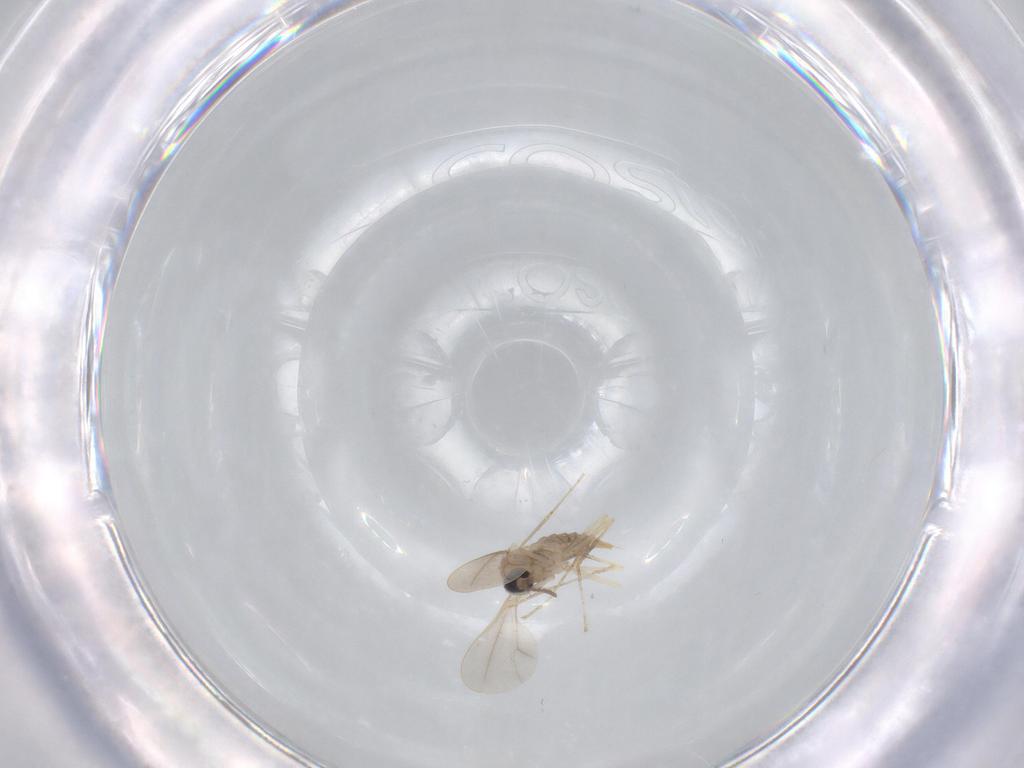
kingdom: Animalia
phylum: Arthropoda
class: Insecta
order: Diptera
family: Cecidomyiidae
